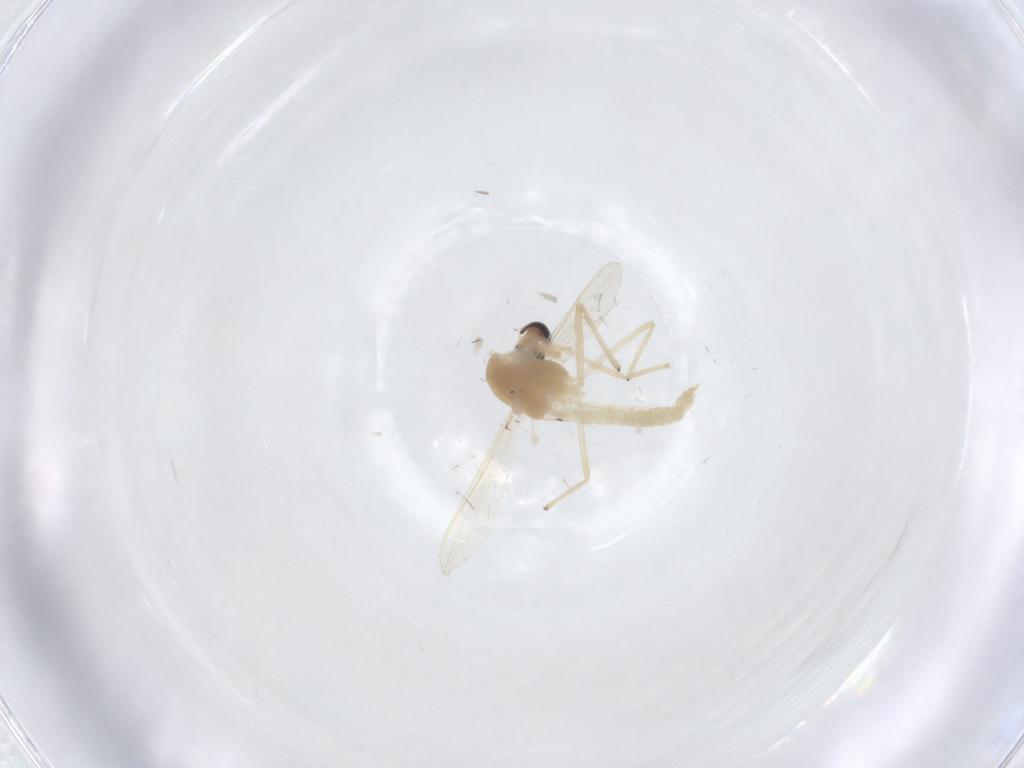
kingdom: Animalia
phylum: Arthropoda
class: Insecta
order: Diptera
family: Chironomidae
